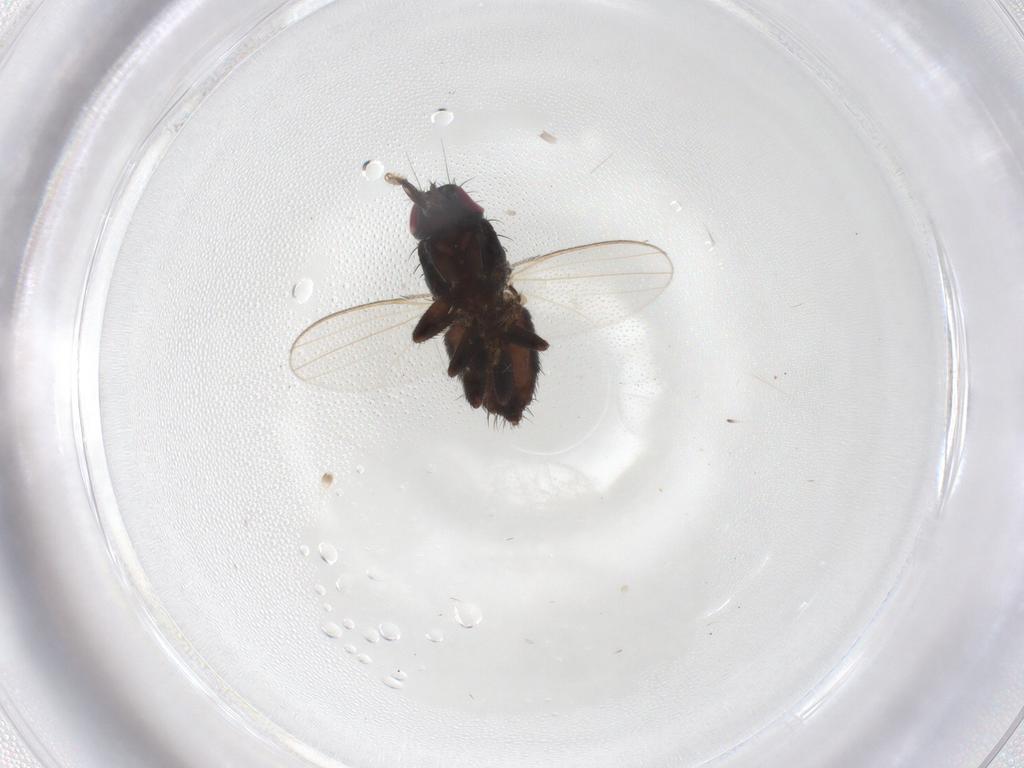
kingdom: Animalia
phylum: Arthropoda
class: Insecta
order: Diptera
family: Milichiidae
